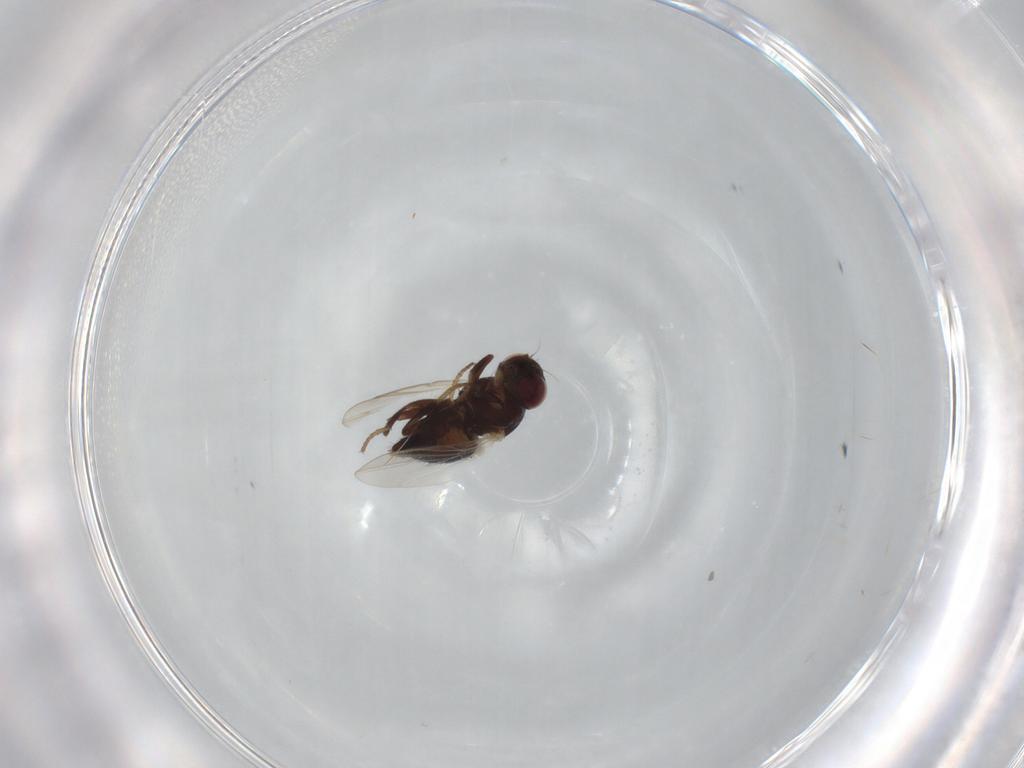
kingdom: Animalia
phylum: Arthropoda
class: Insecta
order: Diptera
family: Agromyzidae
